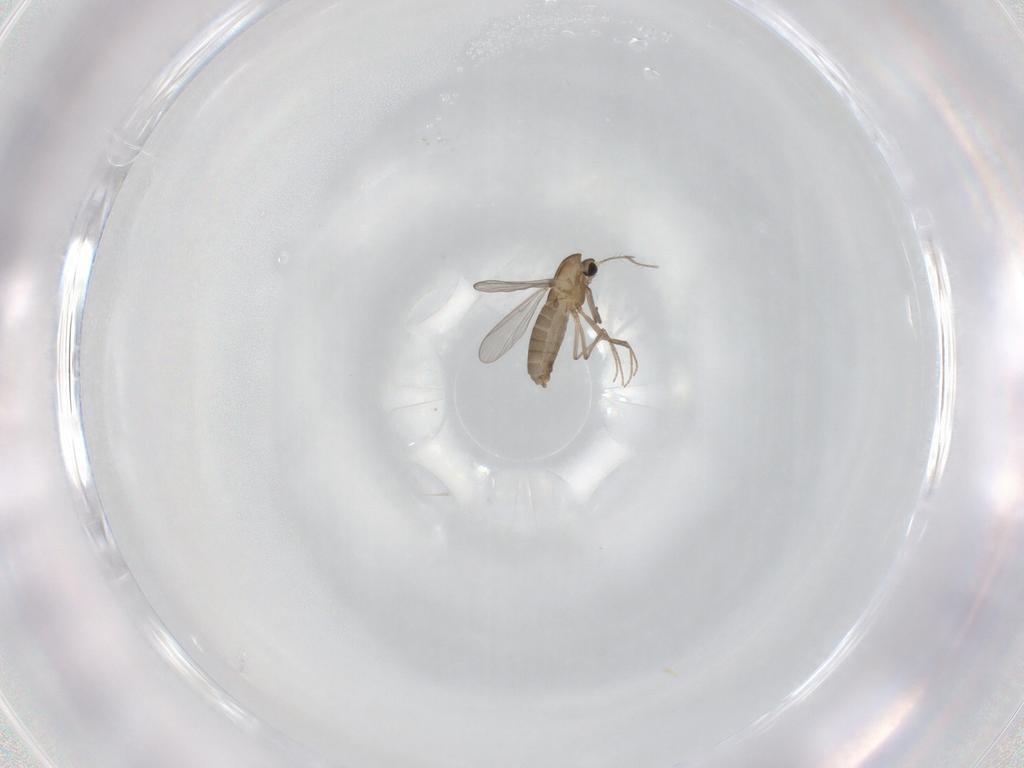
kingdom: Animalia
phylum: Arthropoda
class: Insecta
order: Diptera
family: Chironomidae
